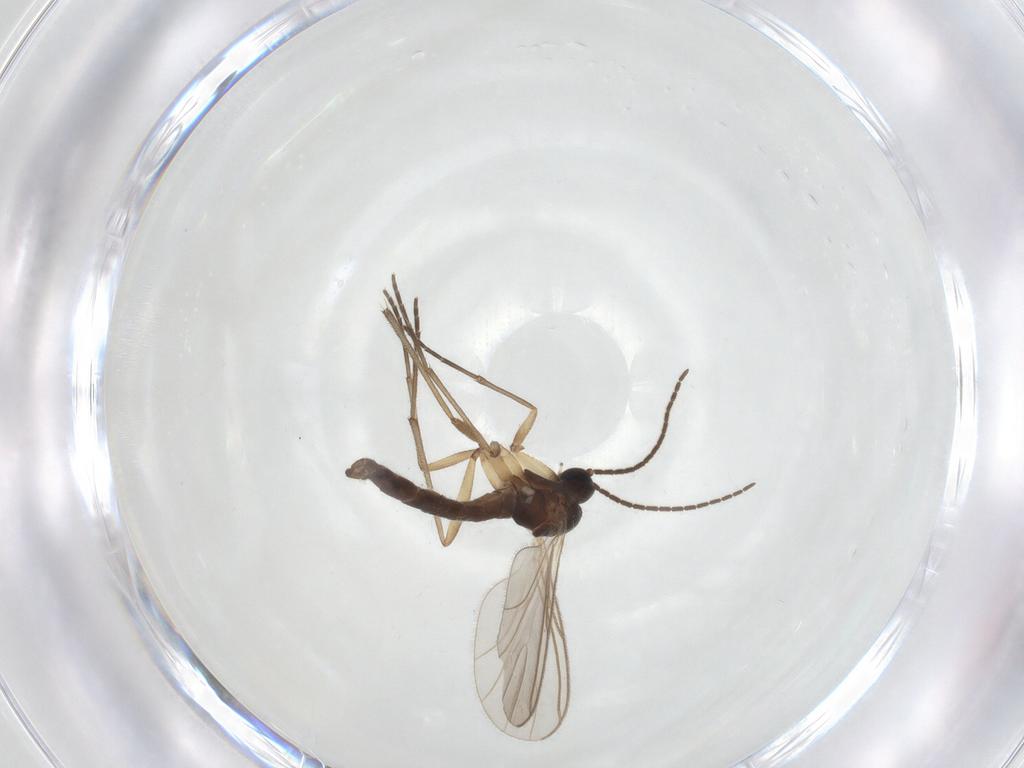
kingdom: Animalia
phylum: Arthropoda
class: Insecta
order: Diptera
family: Sciaridae
